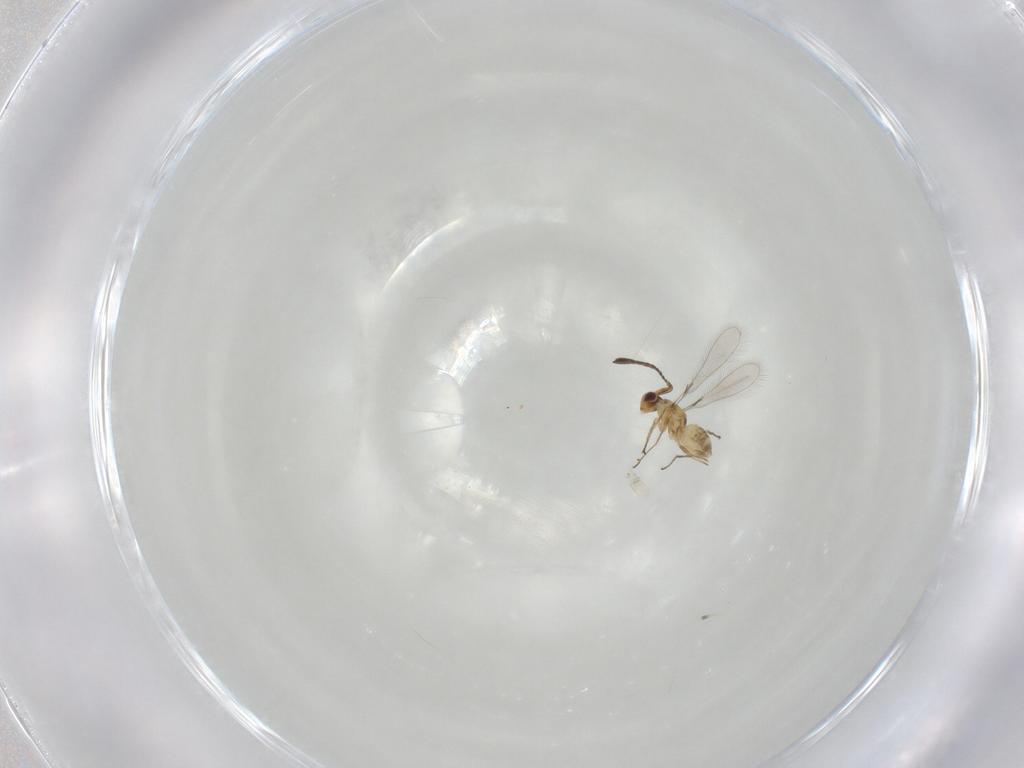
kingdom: Animalia
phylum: Arthropoda
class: Insecta
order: Hymenoptera
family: Mymaridae
